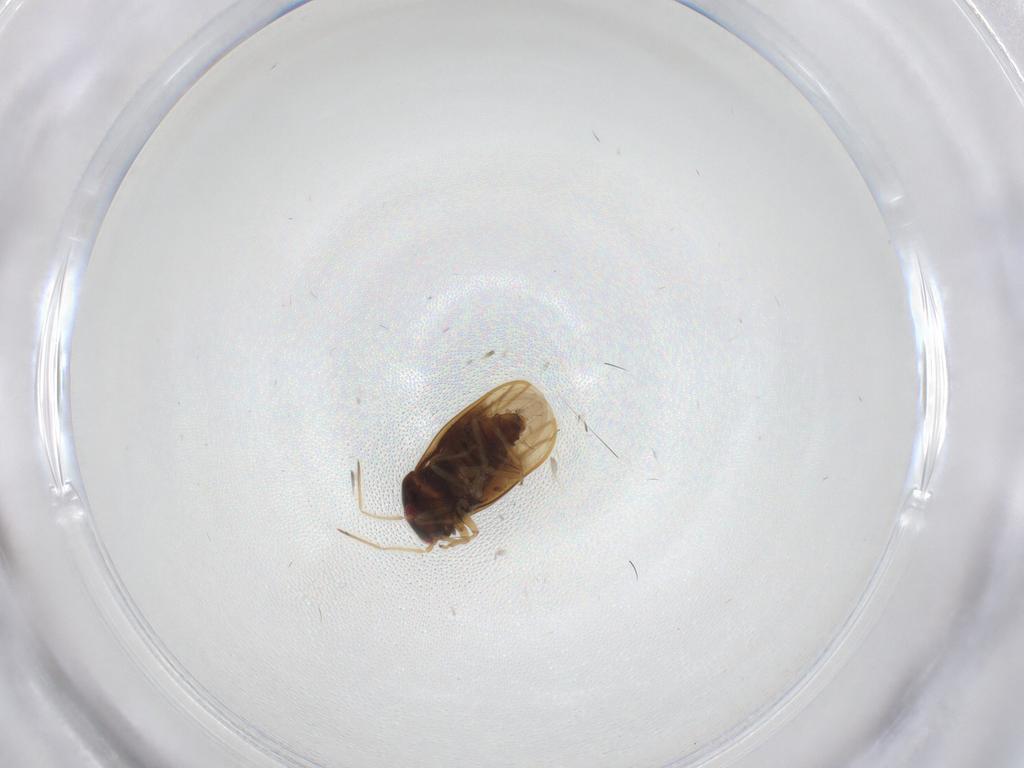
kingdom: Animalia
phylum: Arthropoda
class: Insecta
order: Hemiptera
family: Schizopteridae
